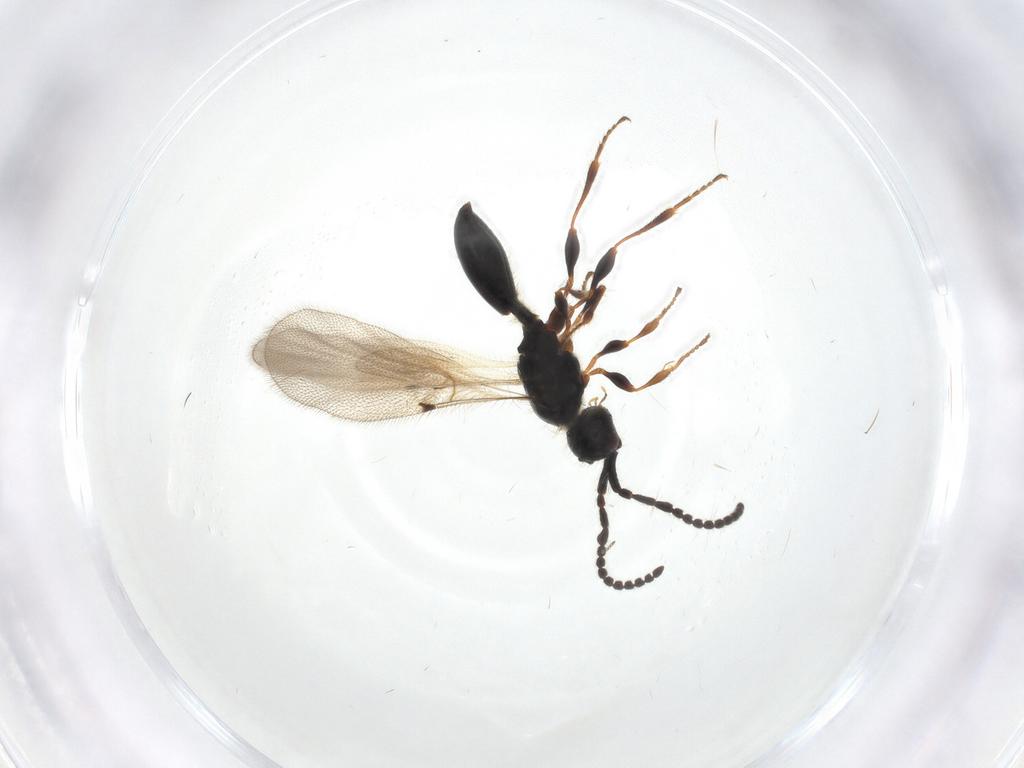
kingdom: Animalia
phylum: Arthropoda
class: Insecta
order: Hymenoptera
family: Diapriidae
